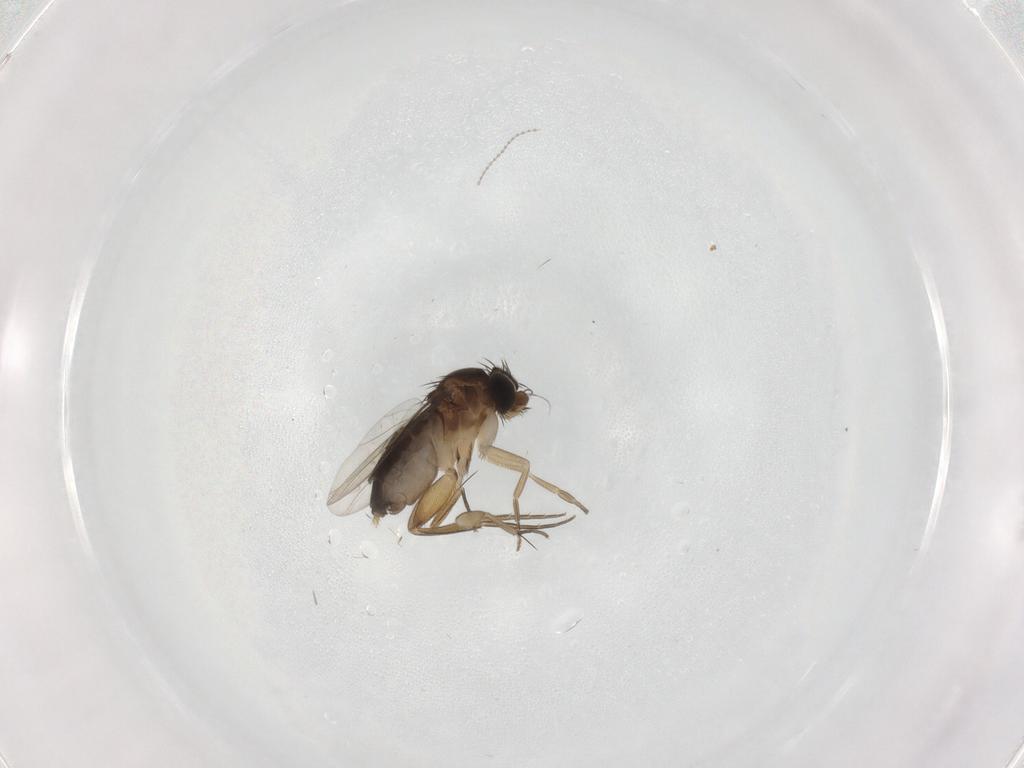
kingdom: Animalia
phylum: Arthropoda
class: Insecta
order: Diptera
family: Phoridae
